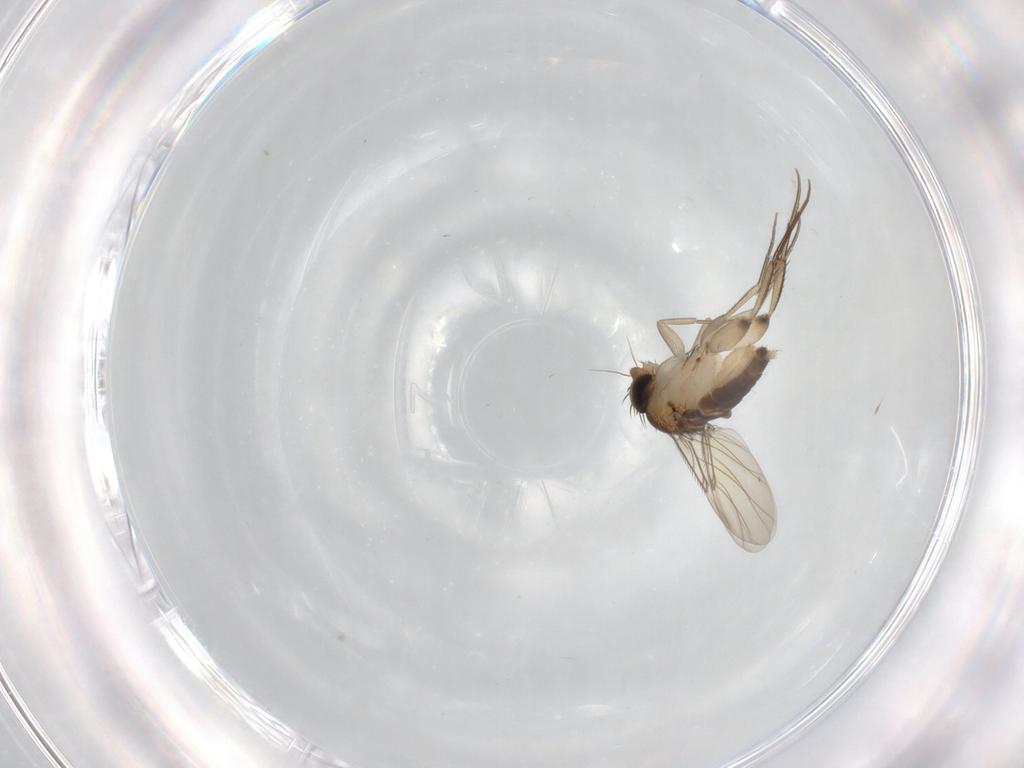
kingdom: Animalia
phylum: Arthropoda
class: Insecta
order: Diptera
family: Phoridae
